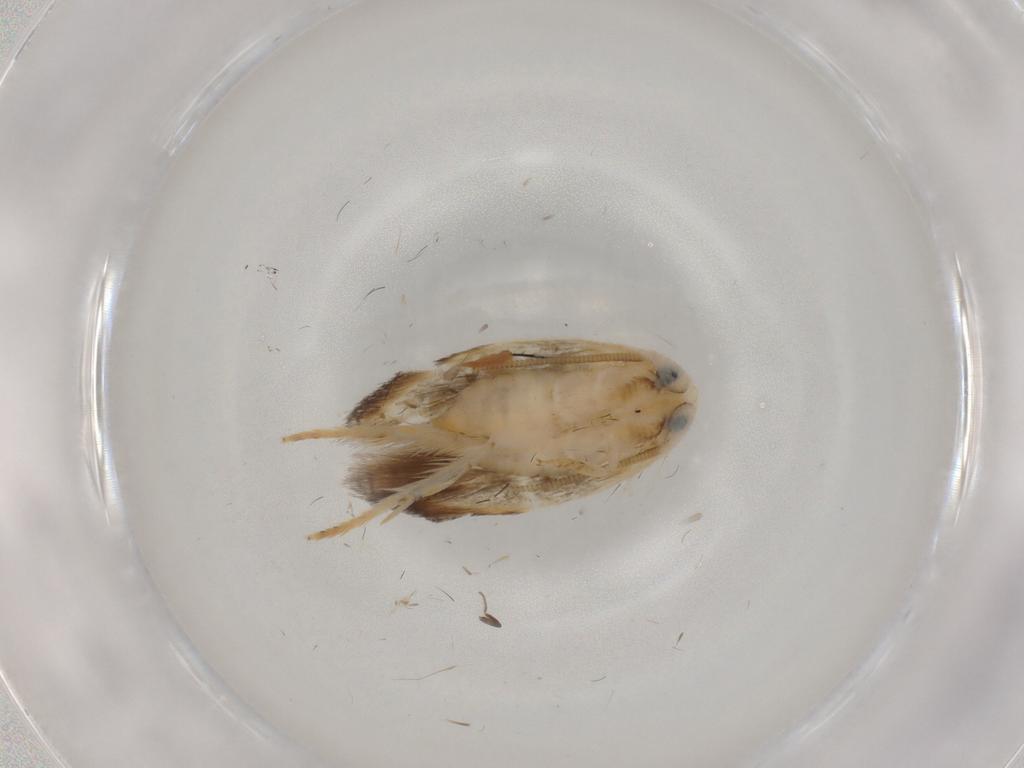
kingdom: Animalia
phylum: Arthropoda
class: Insecta
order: Lepidoptera
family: Opostegidae
